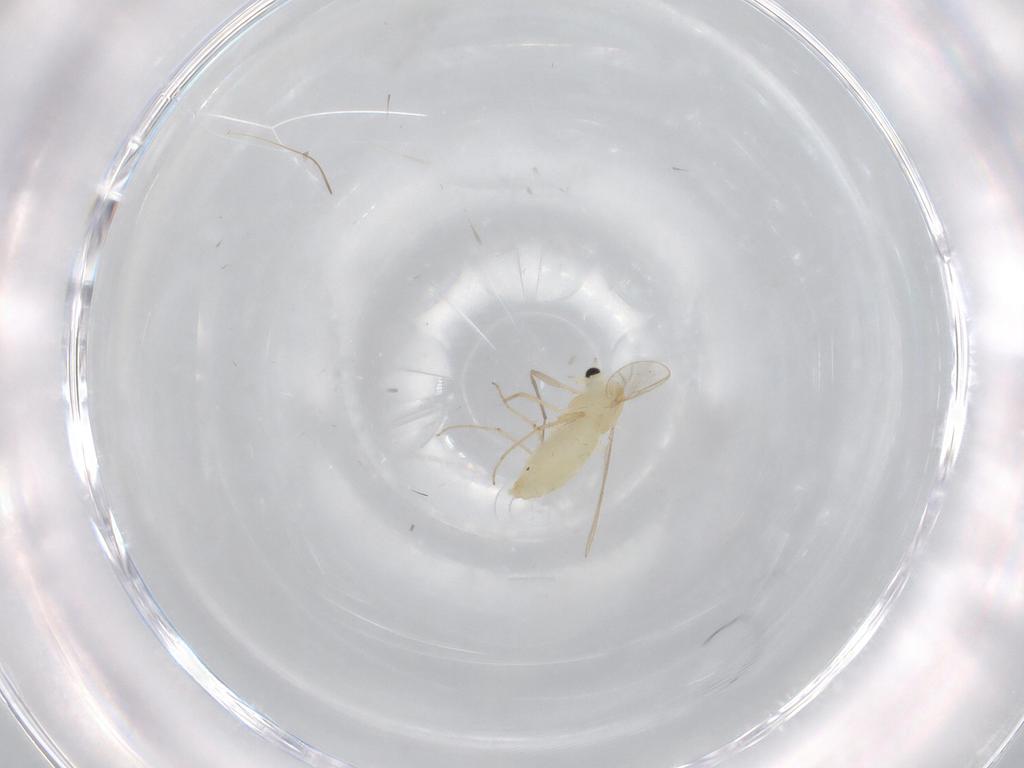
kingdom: Animalia
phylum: Arthropoda
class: Insecta
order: Diptera
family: Chironomidae
